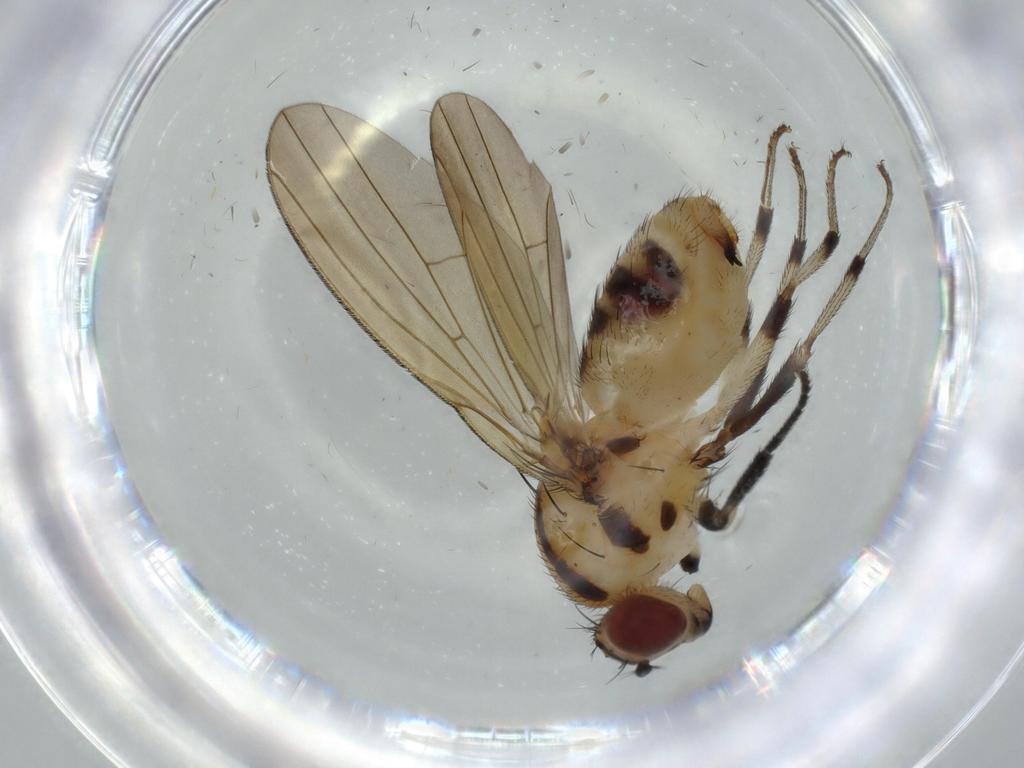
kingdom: Animalia
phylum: Arthropoda
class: Insecta
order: Diptera
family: Lauxaniidae
